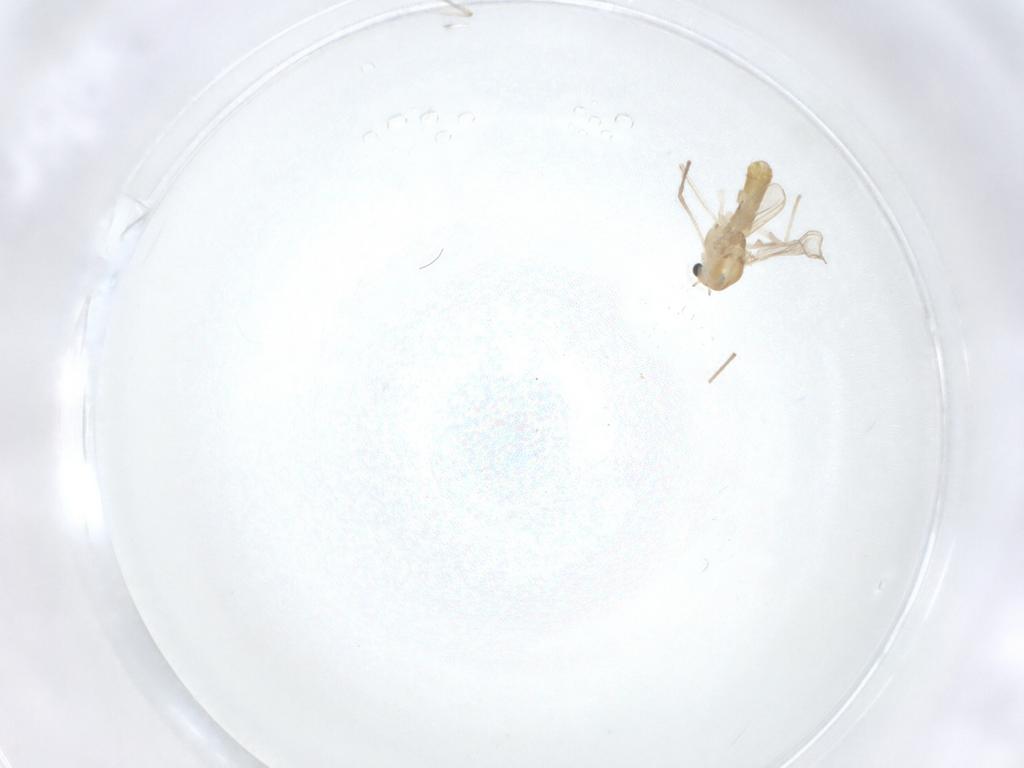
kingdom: Animalia
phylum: Arthropoda
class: Insecta
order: Diptera
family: Chironomidae
